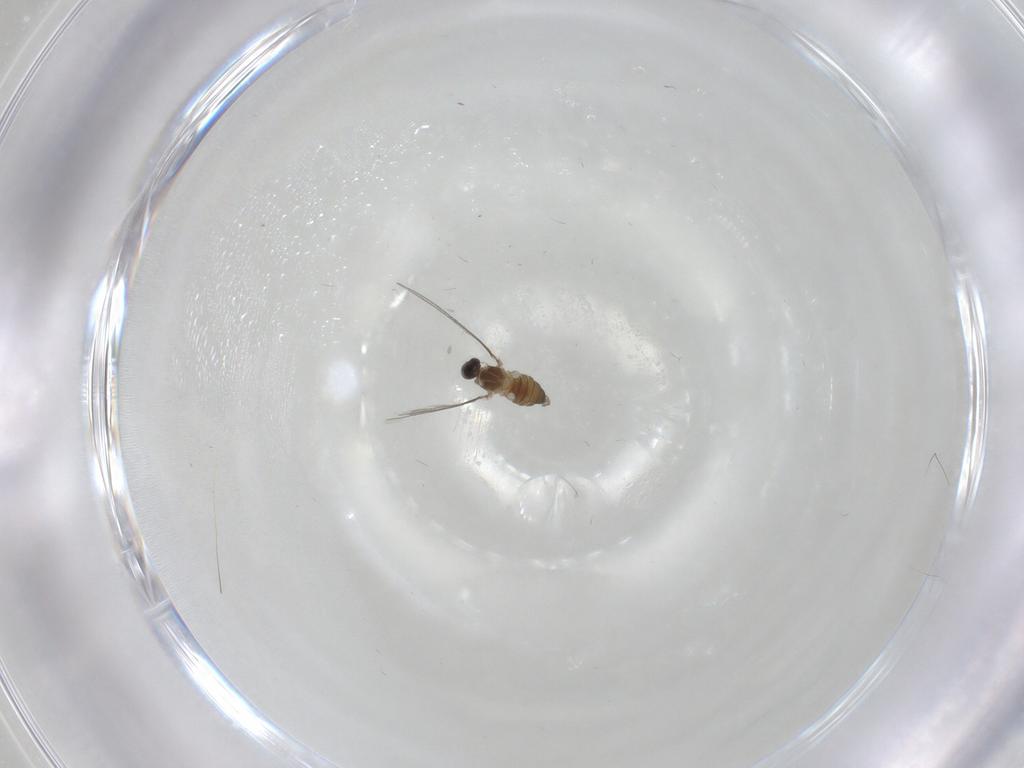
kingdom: Animalia
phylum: Arthropoda
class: Insecta
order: Diptera
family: Cecidomyiidae
